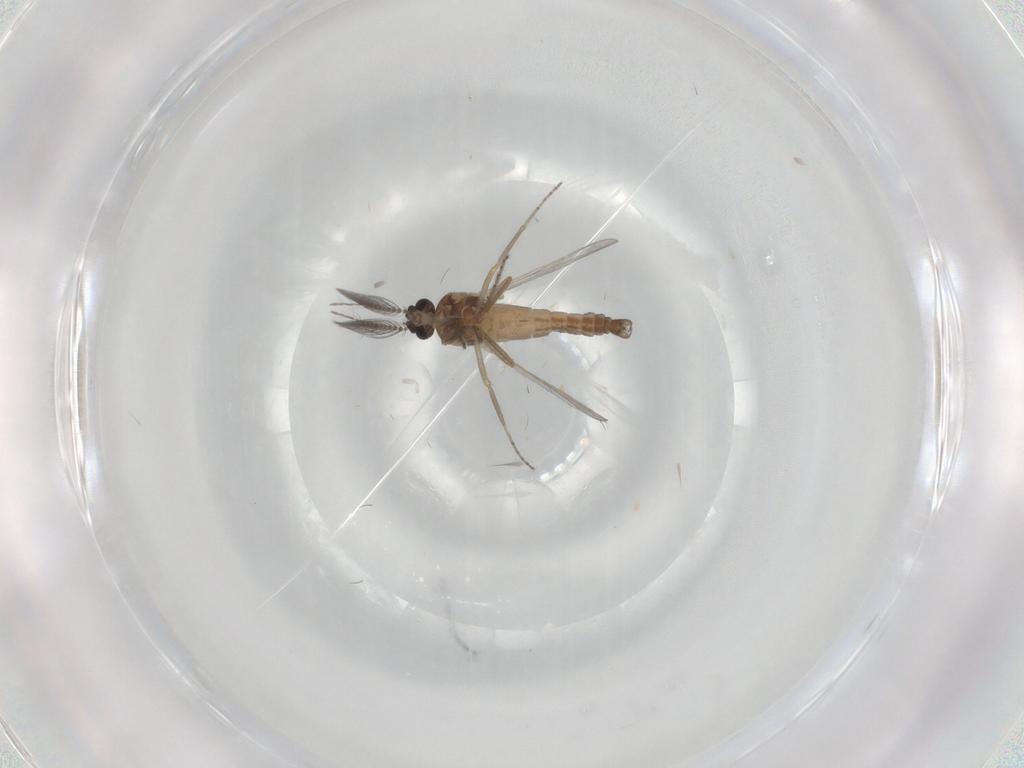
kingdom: Animalia
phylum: Arthropoda
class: Insecta
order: Diptera
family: Ceratopogonidae
